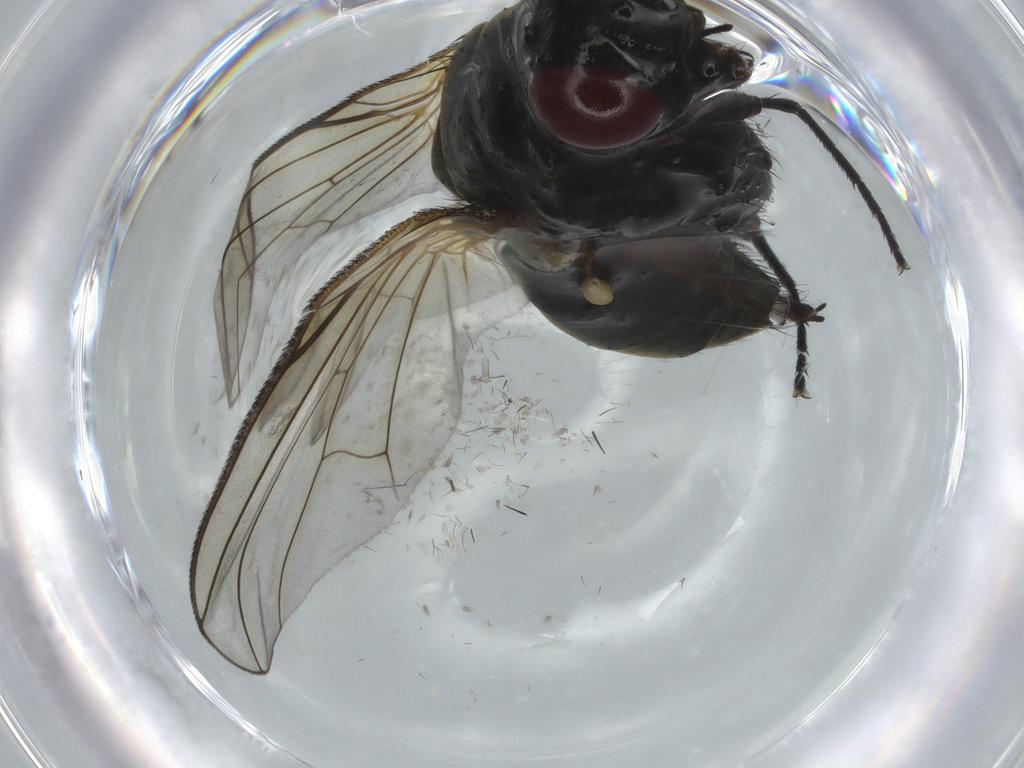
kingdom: Animalia
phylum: Arthropoda
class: Insecta
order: Diptera
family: Muscidae
